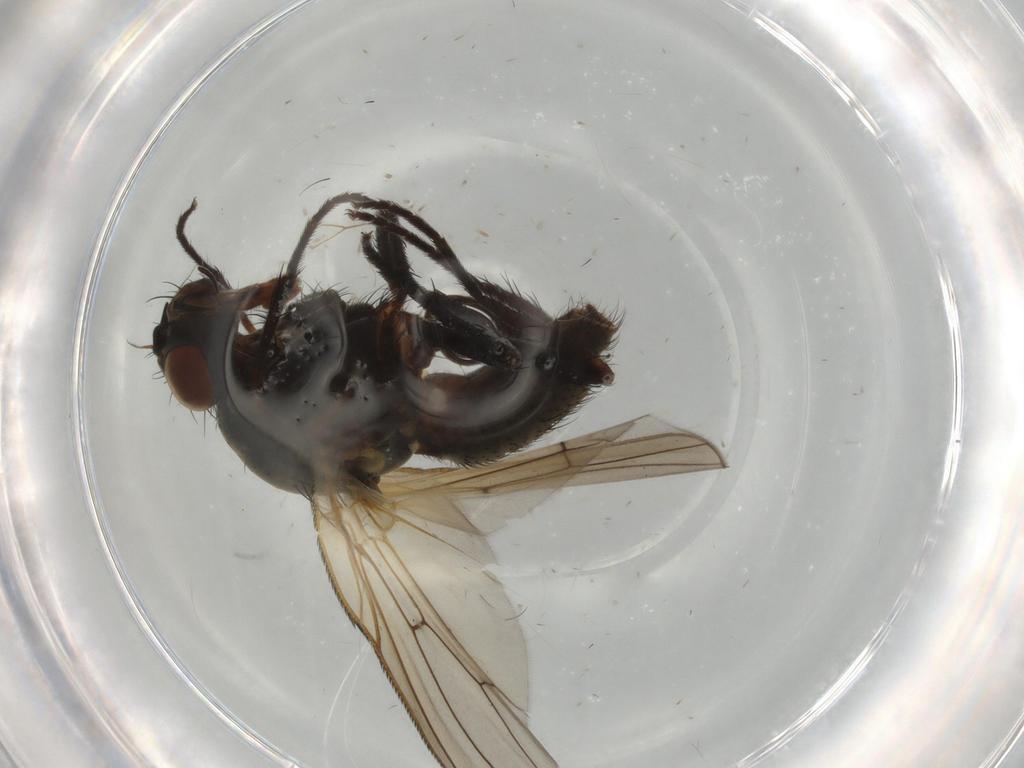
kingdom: Animalia
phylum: Arthropoda
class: Insecta
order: Diptera
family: Anthomyiidae
